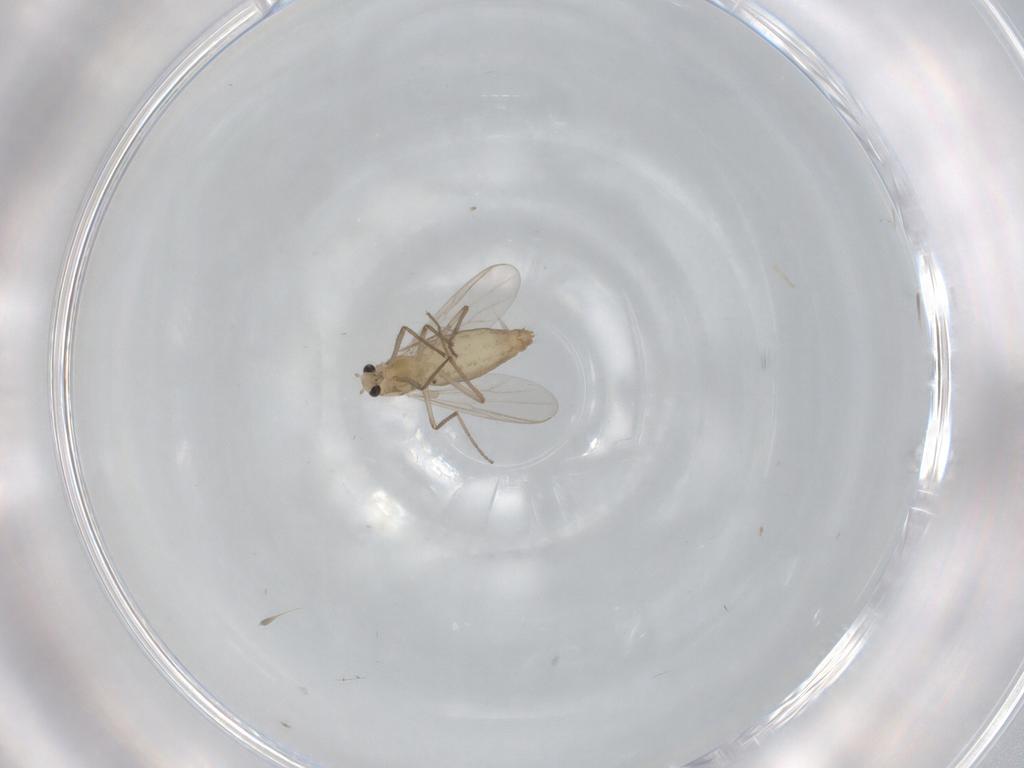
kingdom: Animalia
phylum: Arthropoda
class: Insecta
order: Diptera
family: Chironomidae
